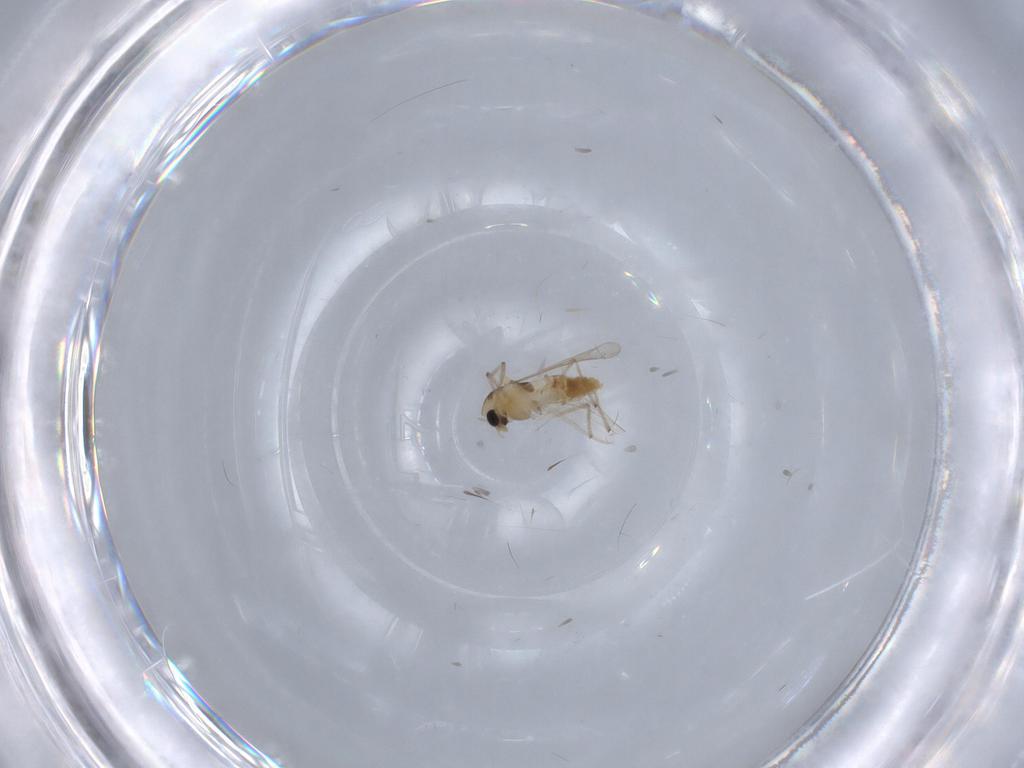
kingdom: Animalia
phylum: Arthropoda
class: Insecta
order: Diptera
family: Chironomidae
